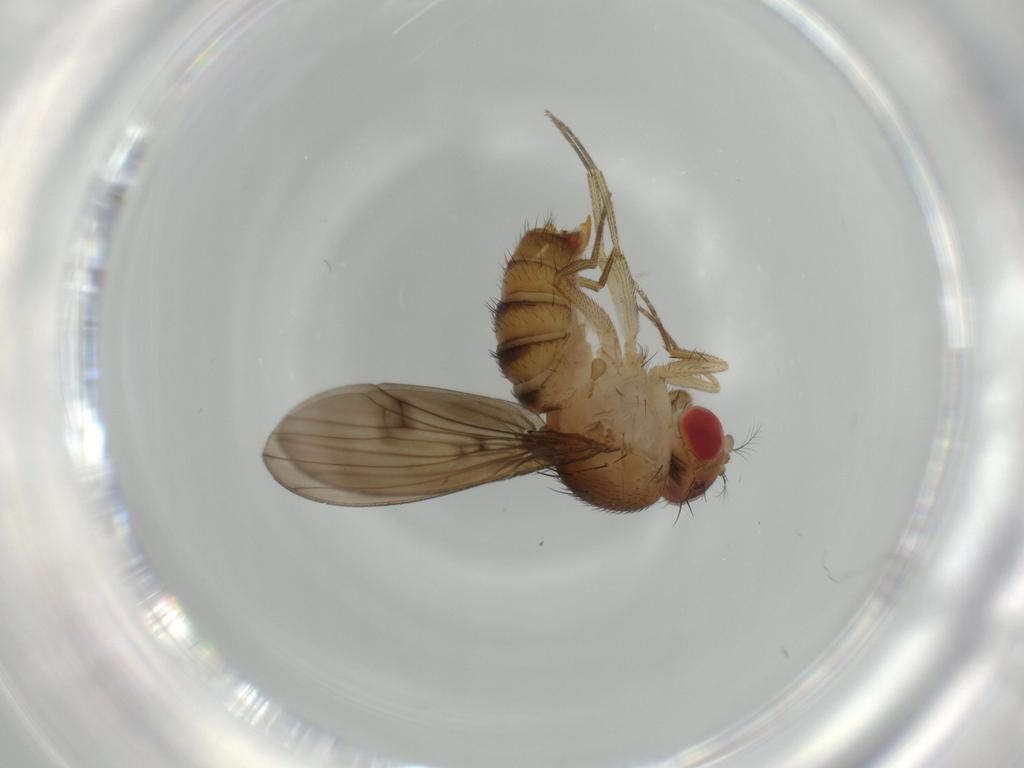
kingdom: Animalia
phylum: Arthropoda
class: Insecta
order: Diptera
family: Drosophilidae
